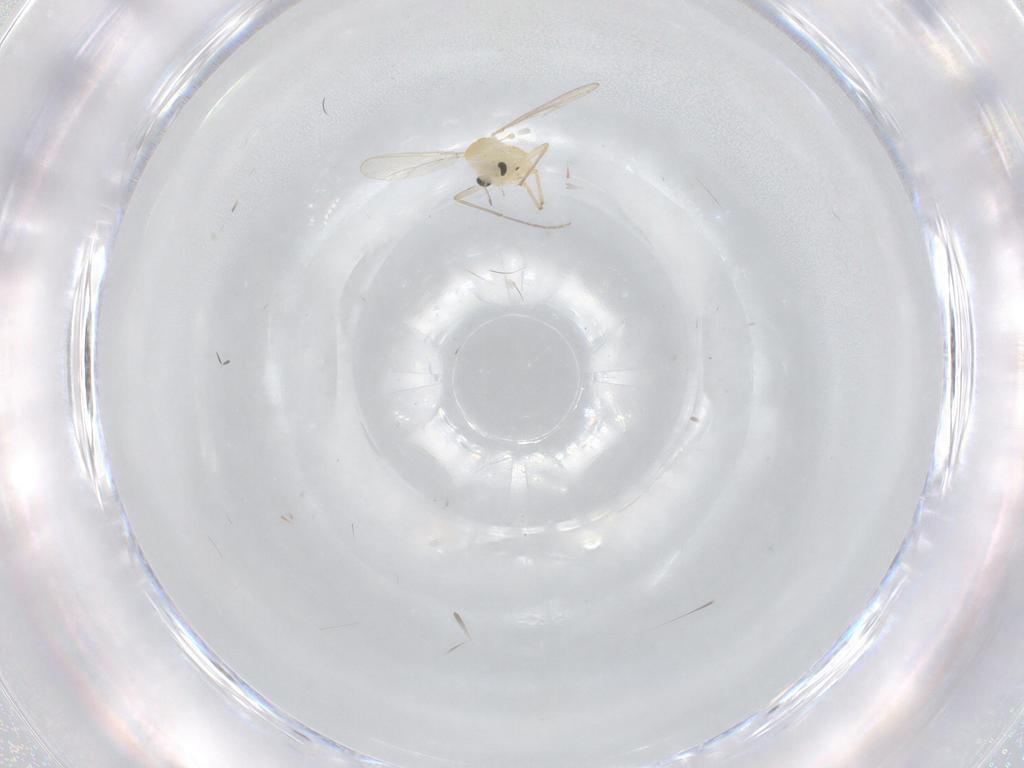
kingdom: Animalia
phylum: Arthropoda
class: Insecta
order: Diptera
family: Chironomidae
